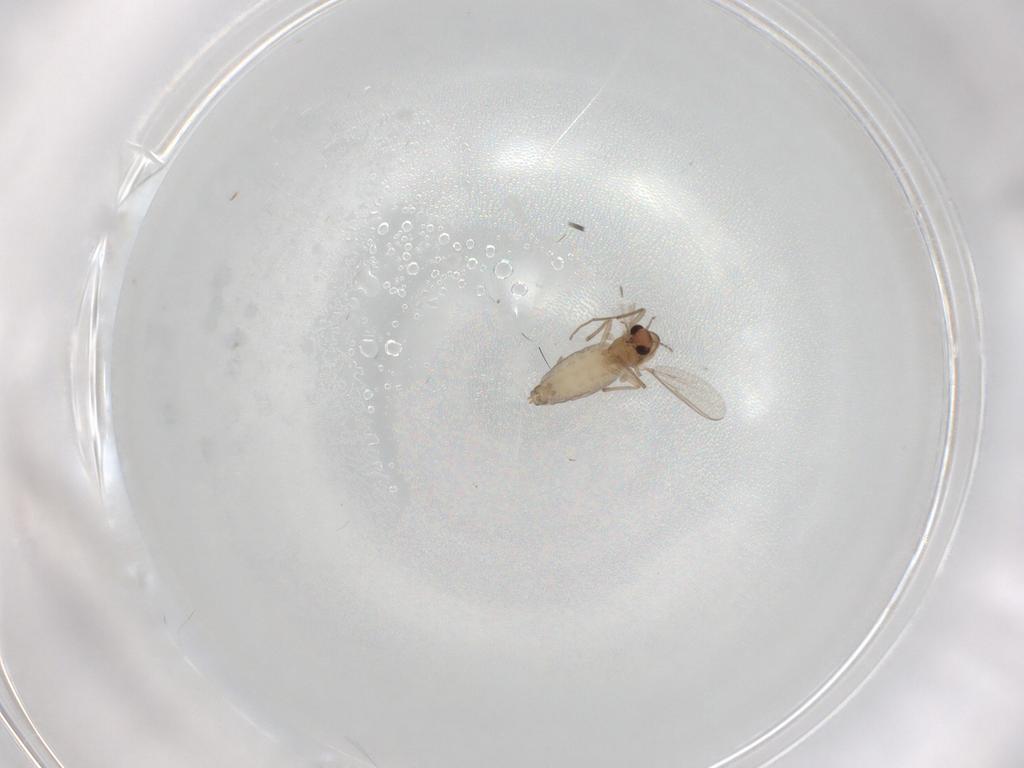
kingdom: Animalia
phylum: Arthropoda
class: Insecta
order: Diptera
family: Chironomidae
